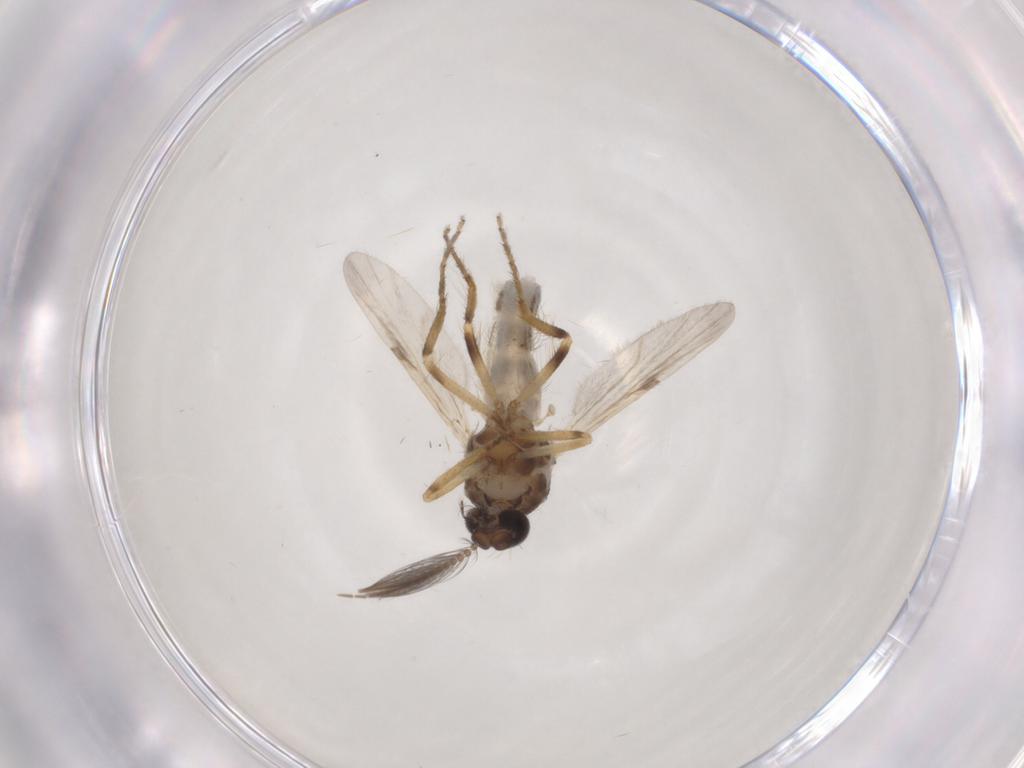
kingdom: Animalia
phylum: Arthropoda
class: Insecta
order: Diptera
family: Ceratopogonidae
